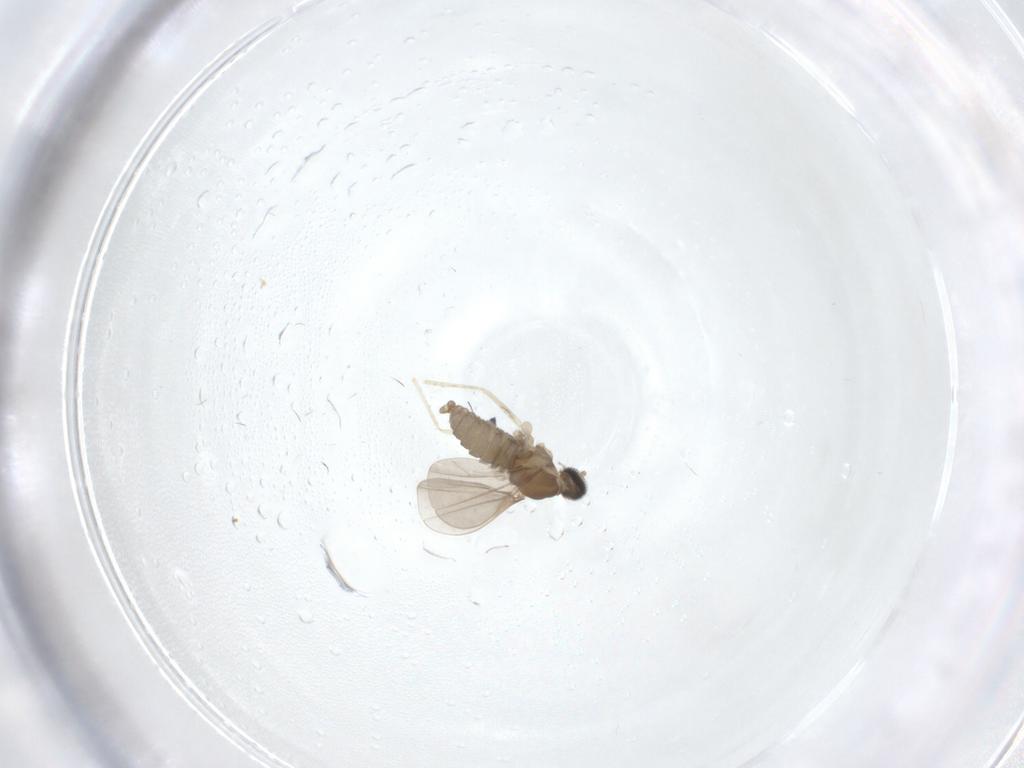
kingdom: Animalia
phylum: Arthropoda
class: Insecta
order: Diptera
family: Cecidomyiidae
